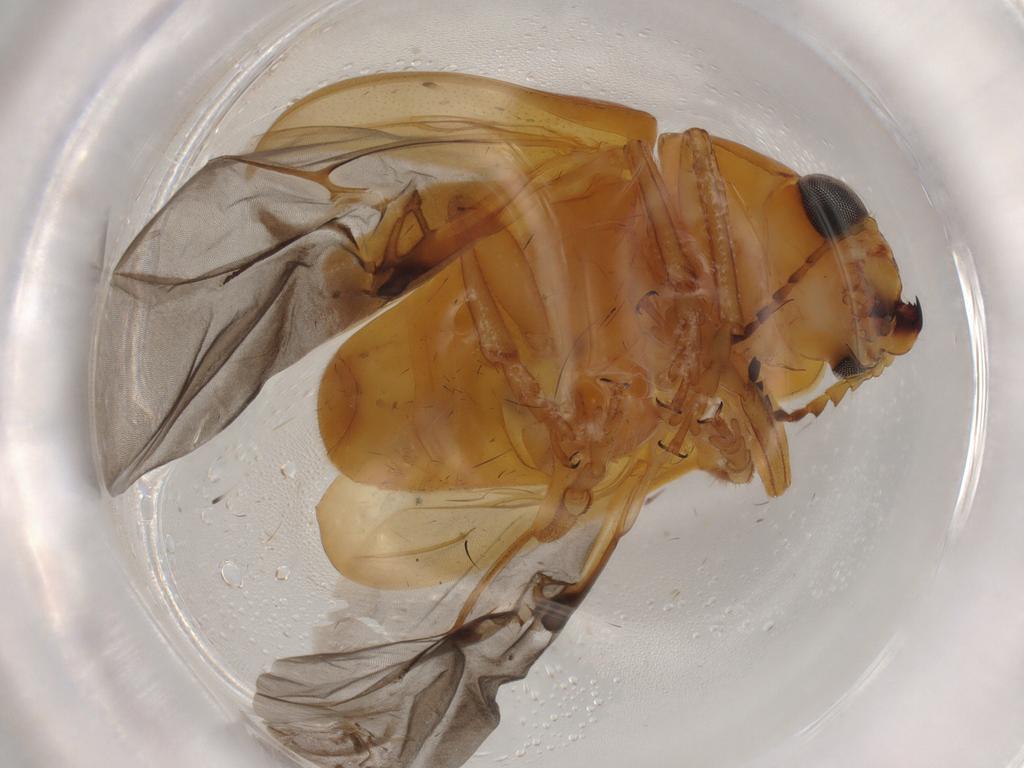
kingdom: Animalia
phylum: Arthropoda
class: Insecta
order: Coleoptera
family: Chrysomelidae
